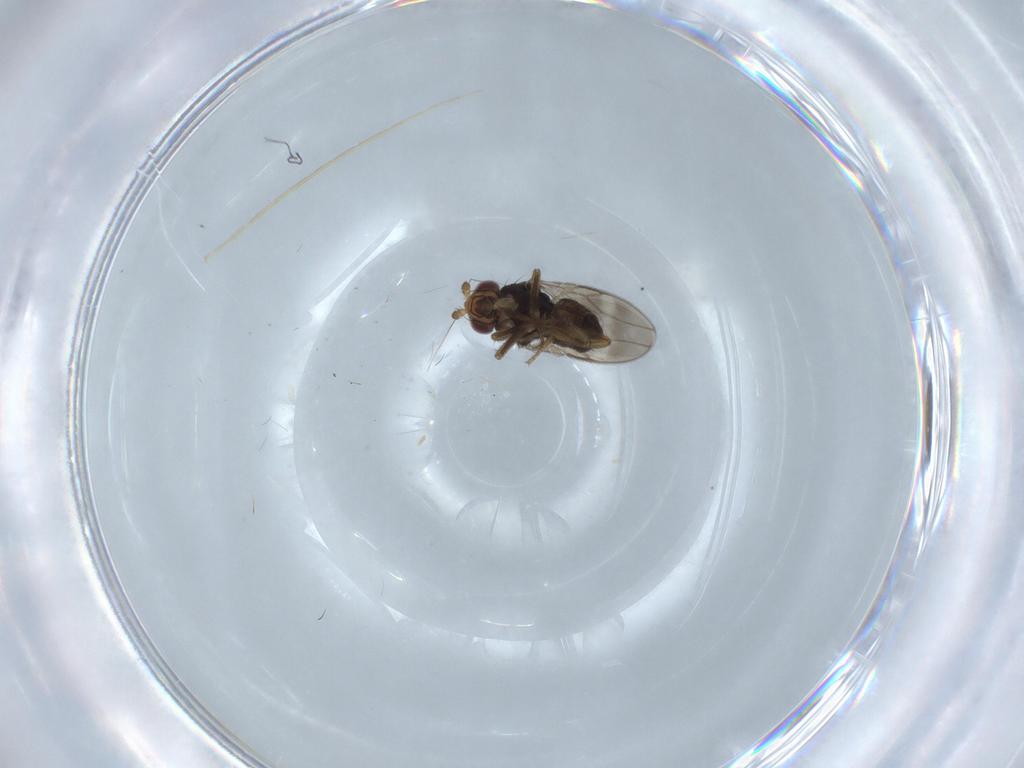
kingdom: Animalia
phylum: Arthropoda
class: Insecta
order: Diptera
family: Sphaeroceridae
